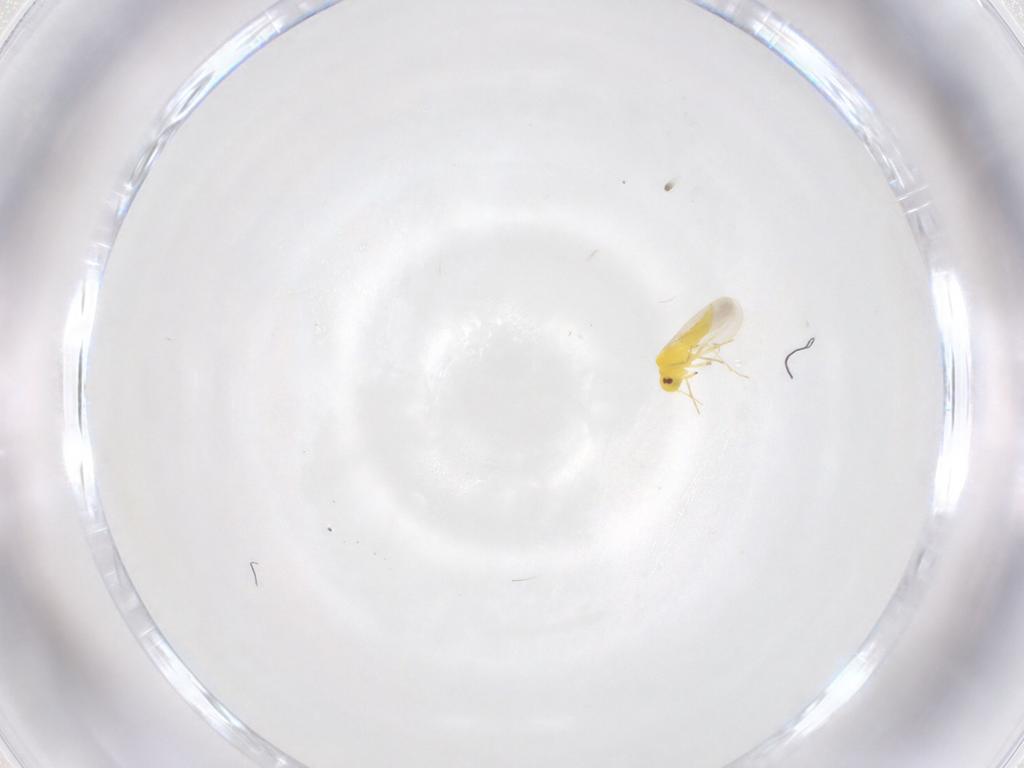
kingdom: Animalia
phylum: Arthropoda
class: Insecta
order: Hemiptera
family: Aleyrodidae
